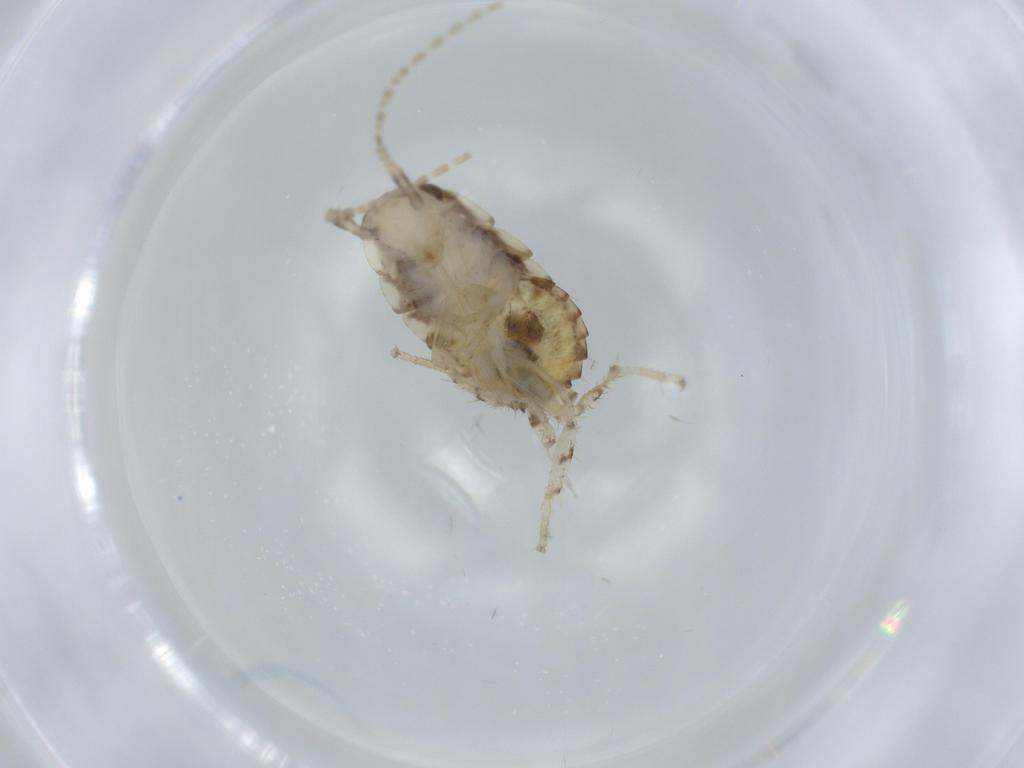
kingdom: Animalia
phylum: Arthropoda
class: Insecta
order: Blattodea
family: Ectobiidae
